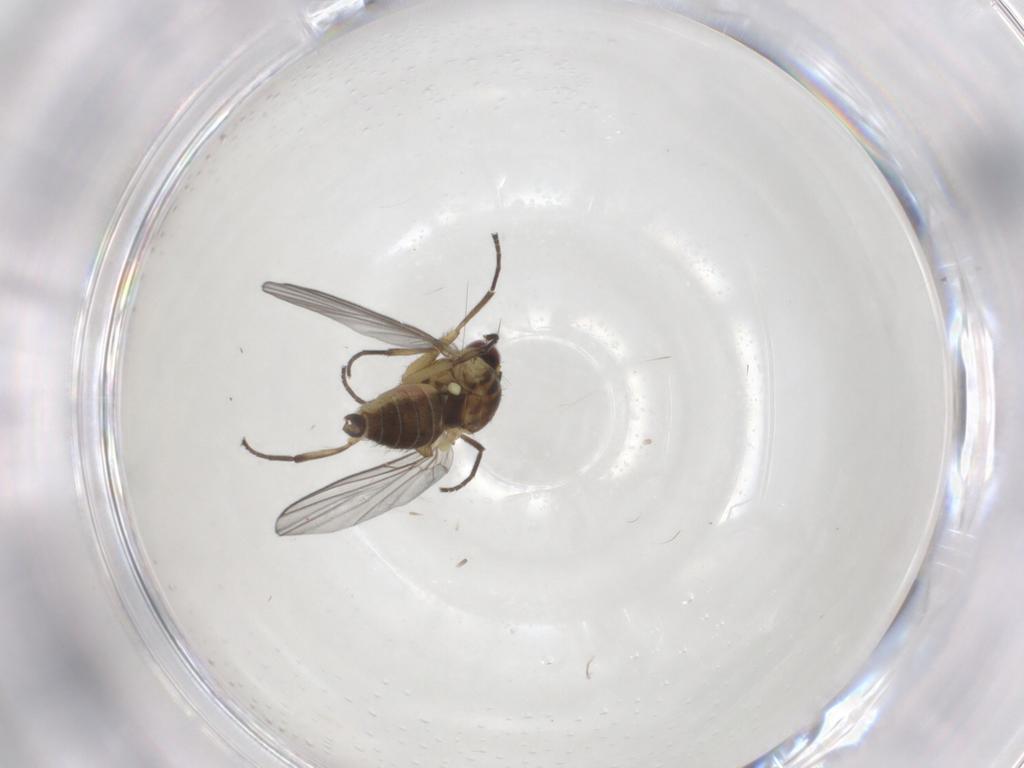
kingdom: Animalia
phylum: Arthropoda
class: Insecta
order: Diptera
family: Agromyzidae
